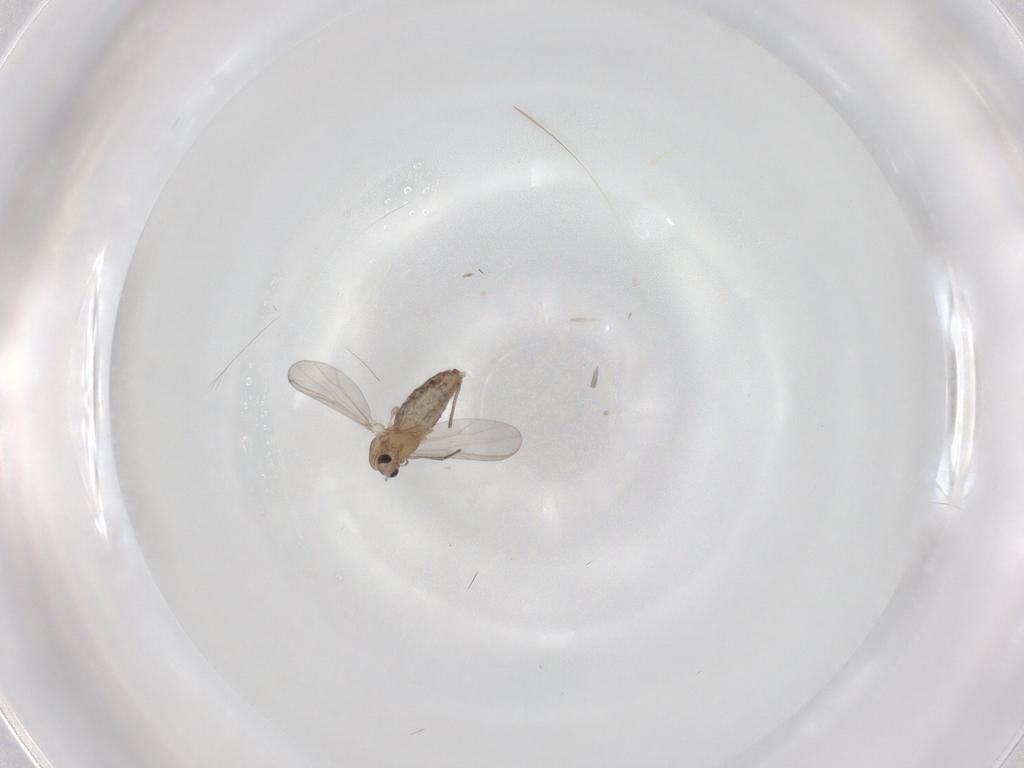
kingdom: Animalia
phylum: Arthropoda
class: Insecta
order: Diptera
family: Chironomidae
